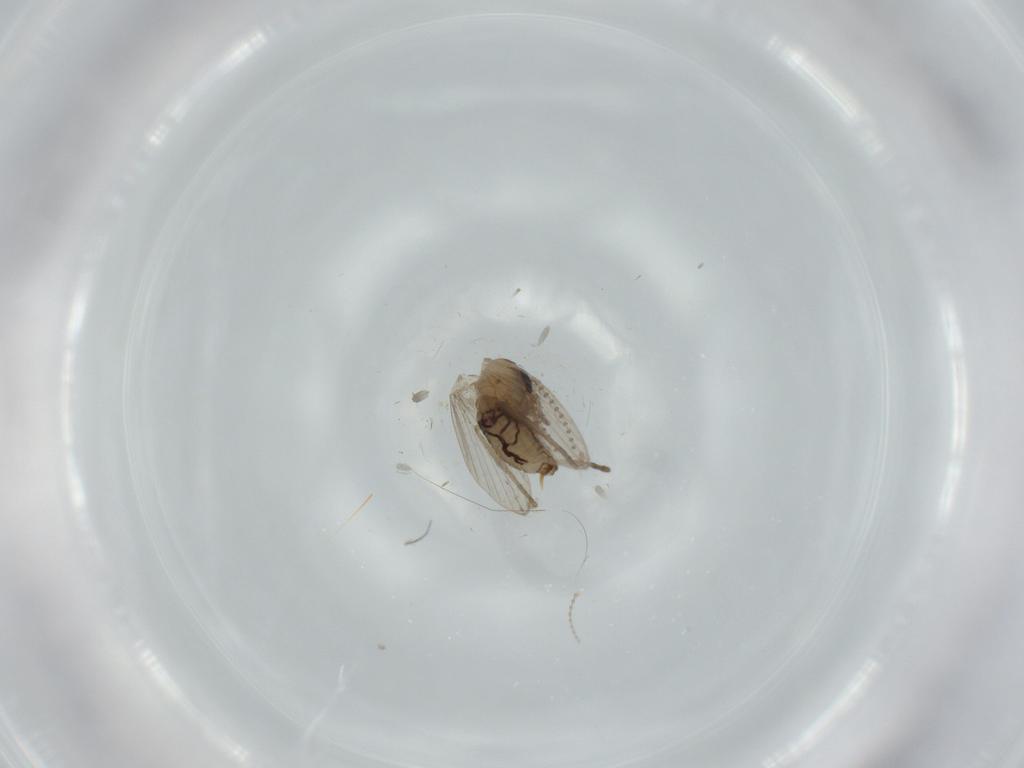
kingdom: Animalia
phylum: Arthropoda
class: Insecta
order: Diptera
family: Psychodidae
